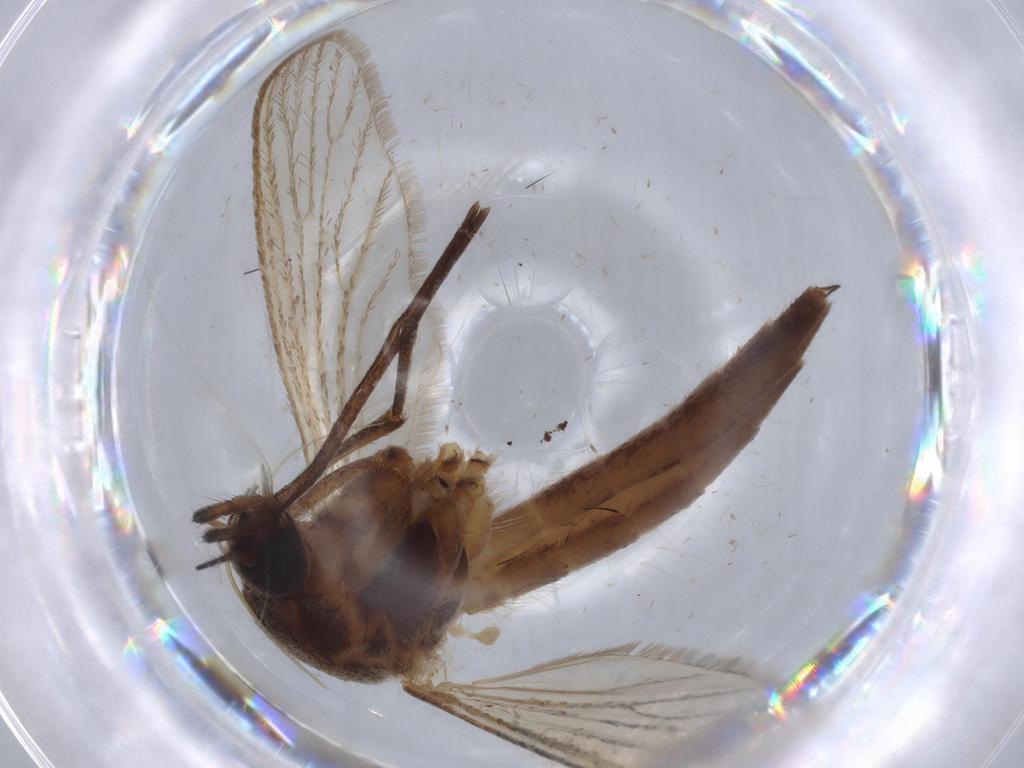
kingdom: Animalia
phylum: Arthropoda
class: Insecta
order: Diptera
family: Culicidae
